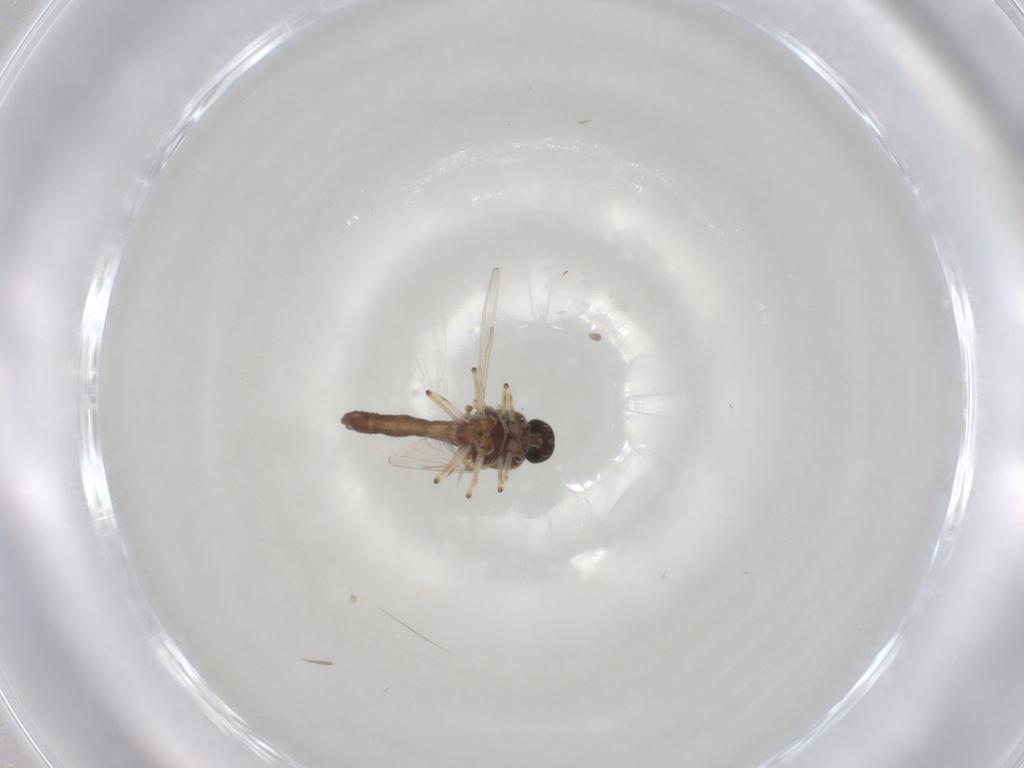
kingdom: Animalia
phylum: Arthropoda
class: Insecta
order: Diptera
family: Ceratopogonidae
